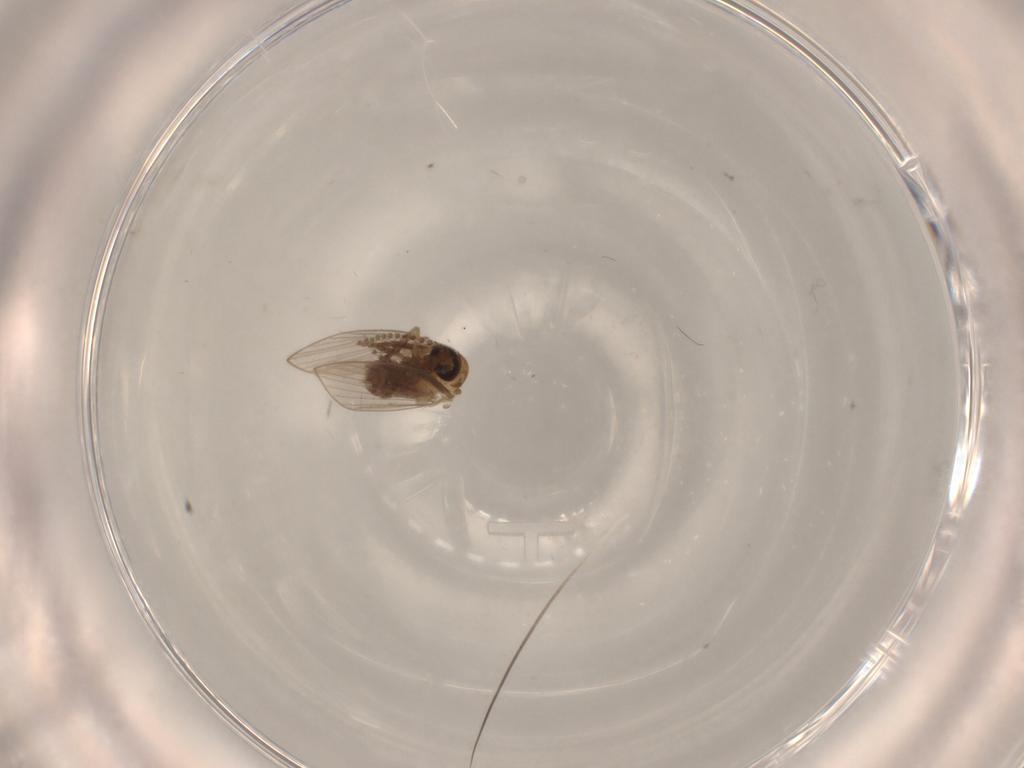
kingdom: Animalia
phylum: Arthropoda
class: Insecta
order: Diptera
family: Psychodidae
